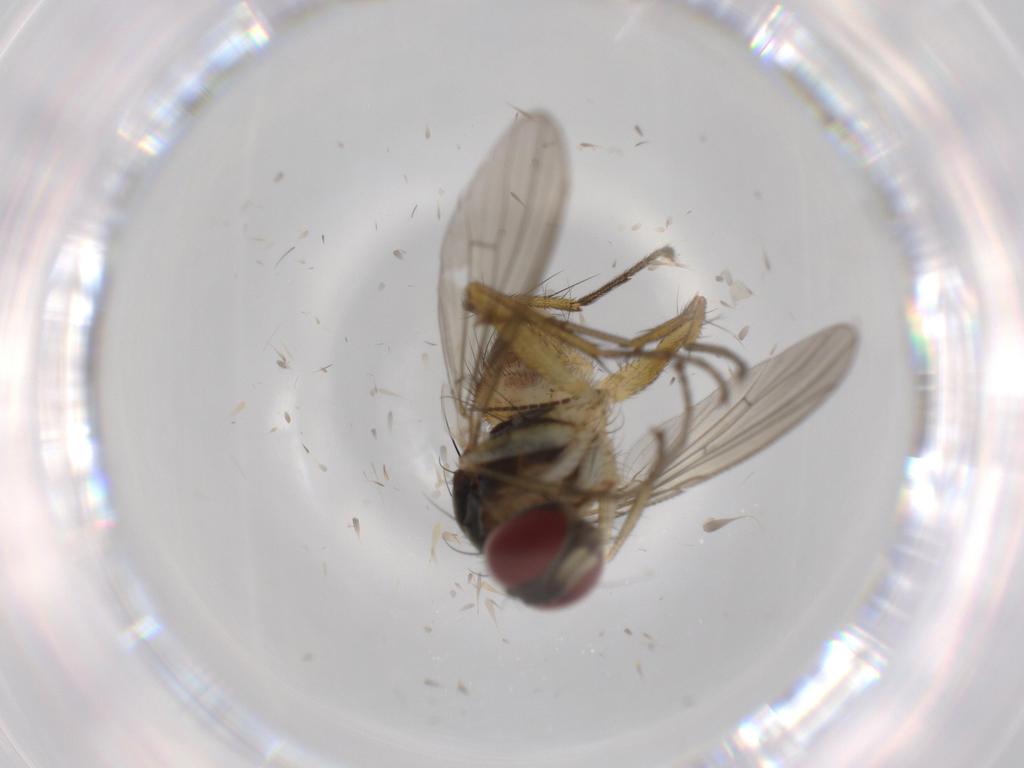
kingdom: Animalia
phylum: Arthropoda
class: Insecta
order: Diptera
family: Muscidae
